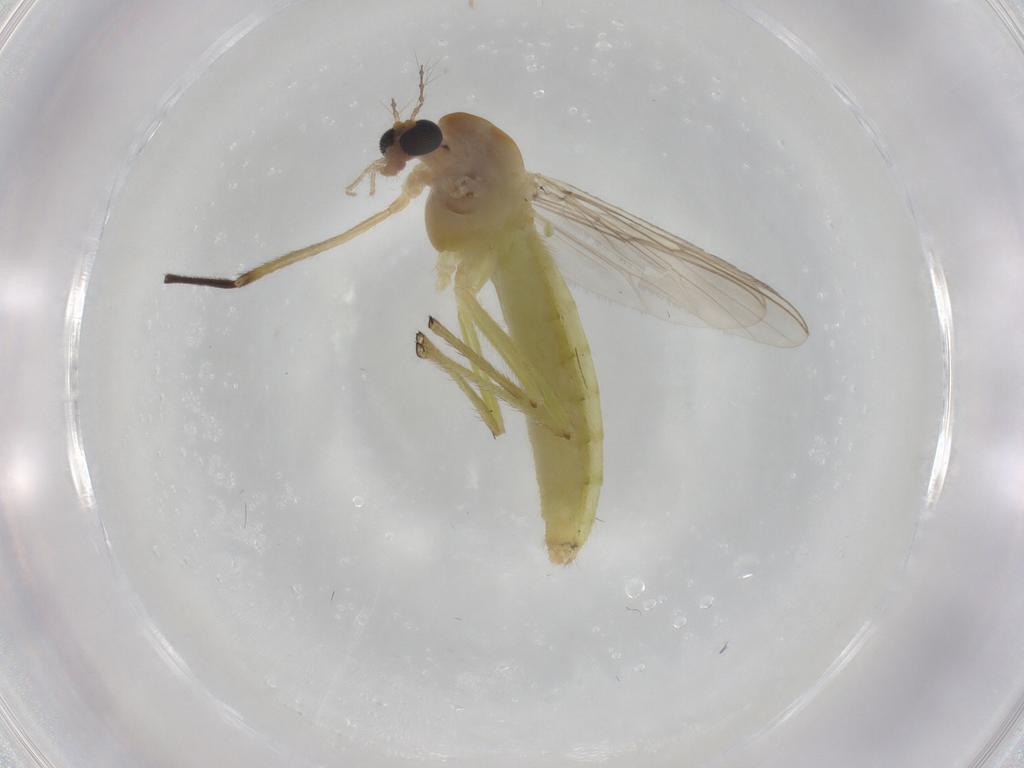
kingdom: Animalia
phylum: Arthropoda
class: Insecta
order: Diptera
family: Chironomidae
